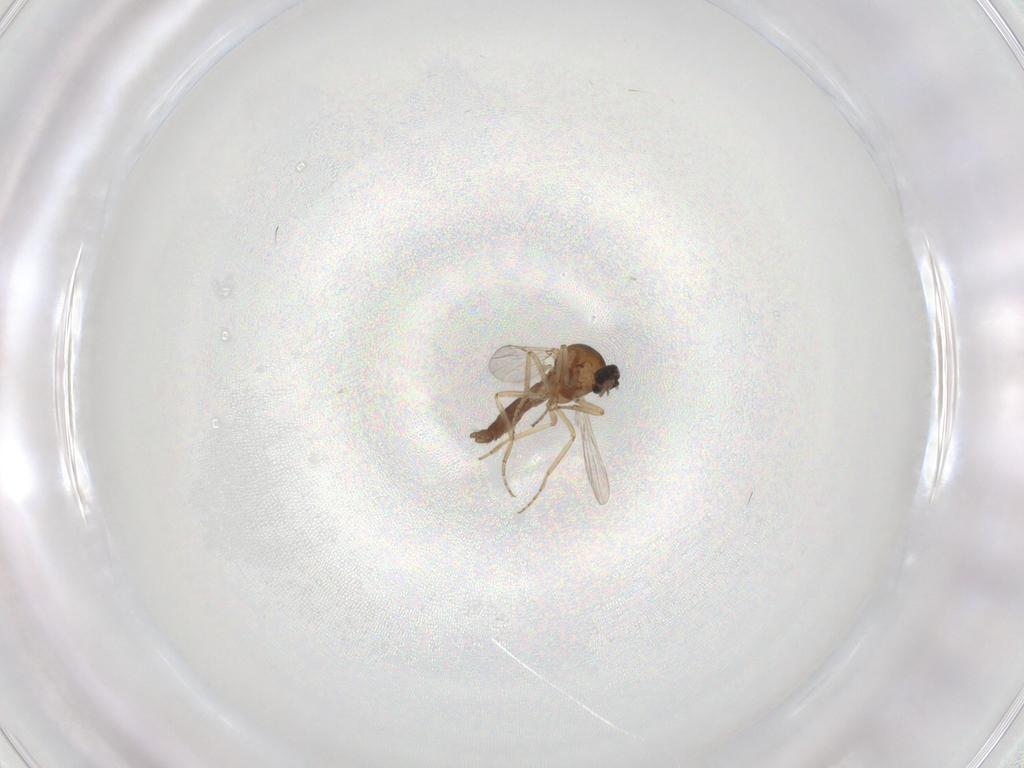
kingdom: Animalia
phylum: Arthropoda
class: Insecta
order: Diptera
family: Ceratopogonidae
